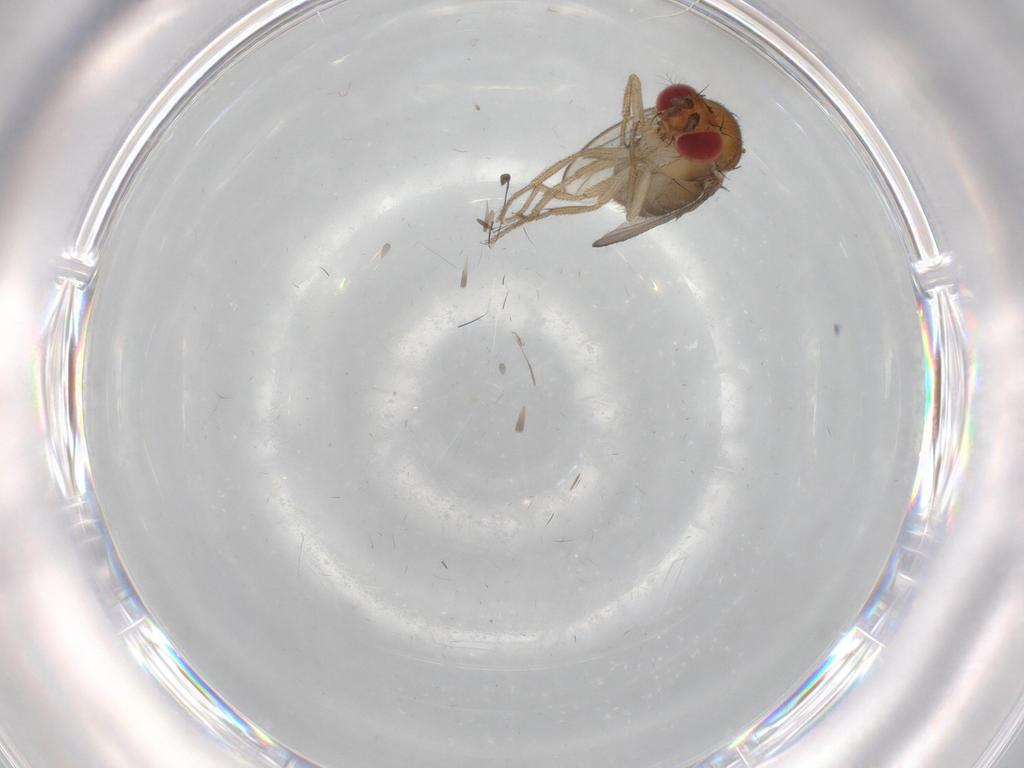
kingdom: Animalia
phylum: Arthropoda
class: Insecta
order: Diptera
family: Drosophilidae
